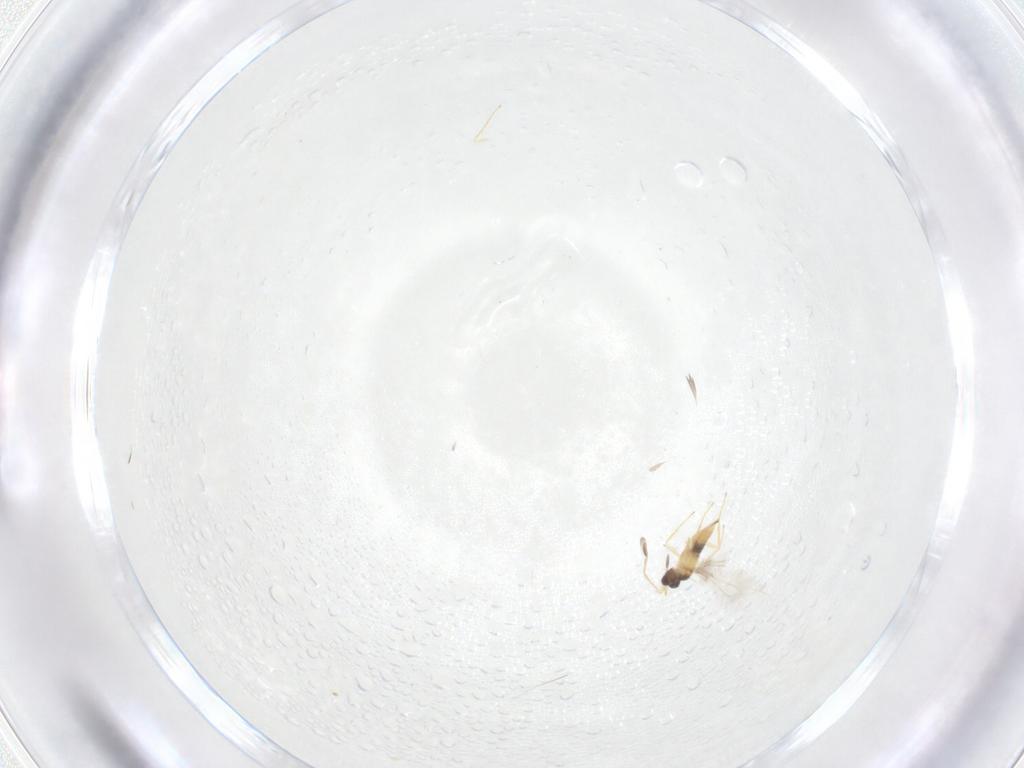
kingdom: Animalia
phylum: Arthropoda
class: Insecta
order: Hymenoptera
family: Mymaridae
